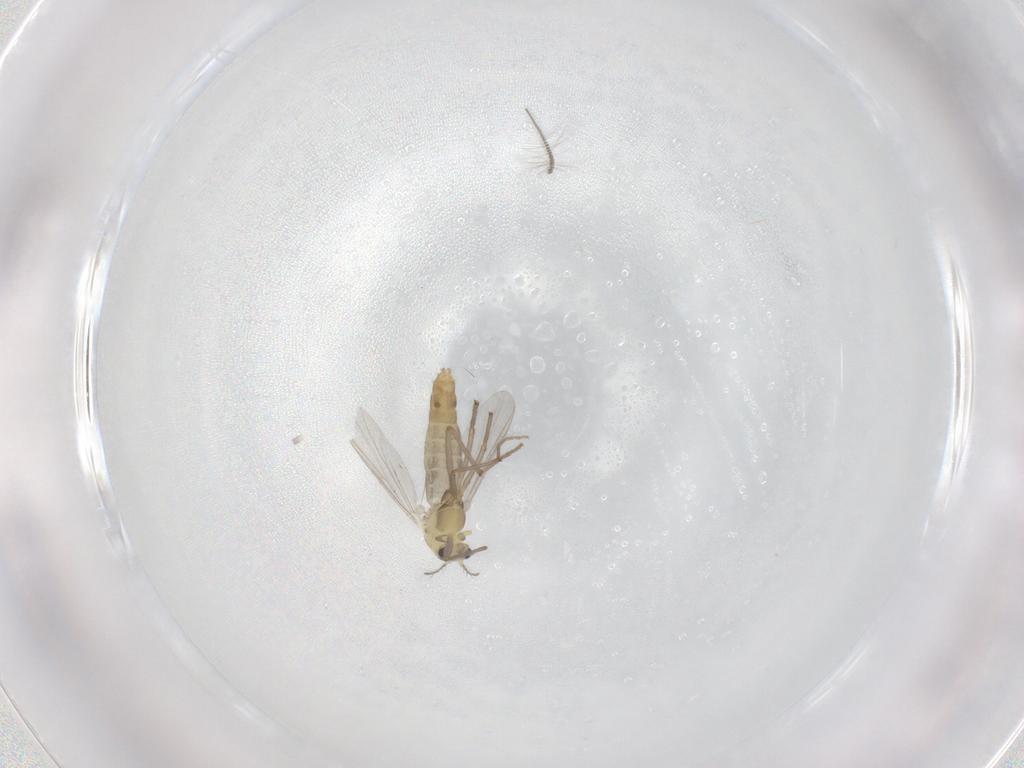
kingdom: Animalia
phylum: Arthropoda
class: Insecta
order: Diptera
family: Chironomidae
